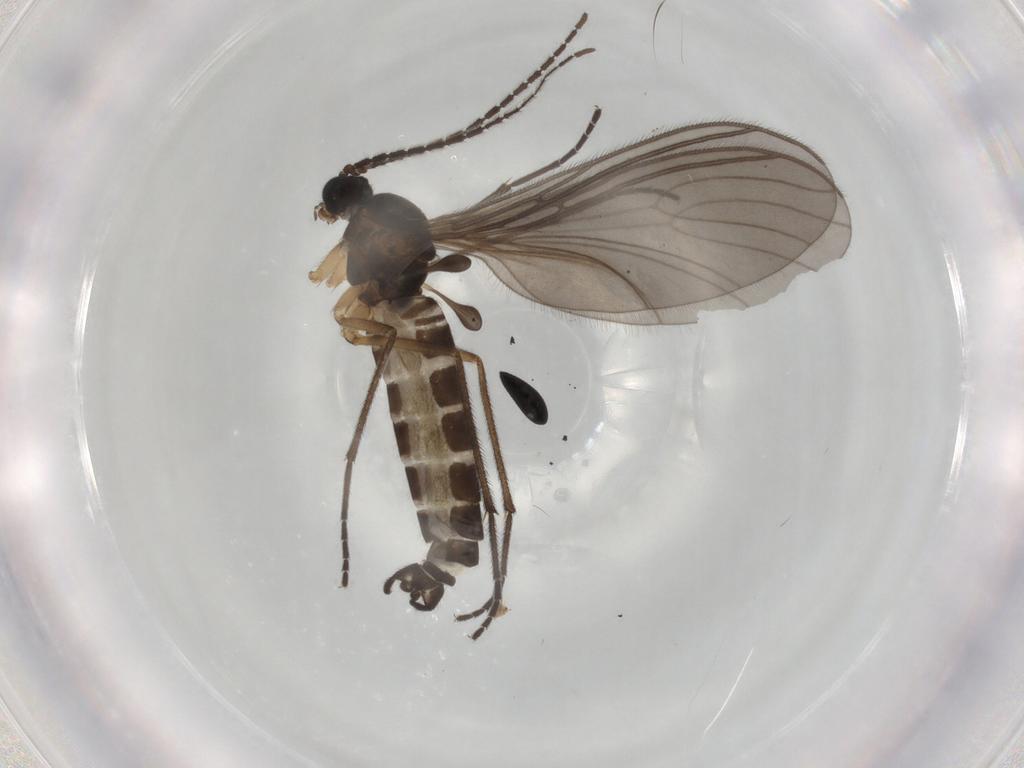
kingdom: Animalia
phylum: Arthropoda
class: Insecta
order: Diptera
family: Sciaridae
